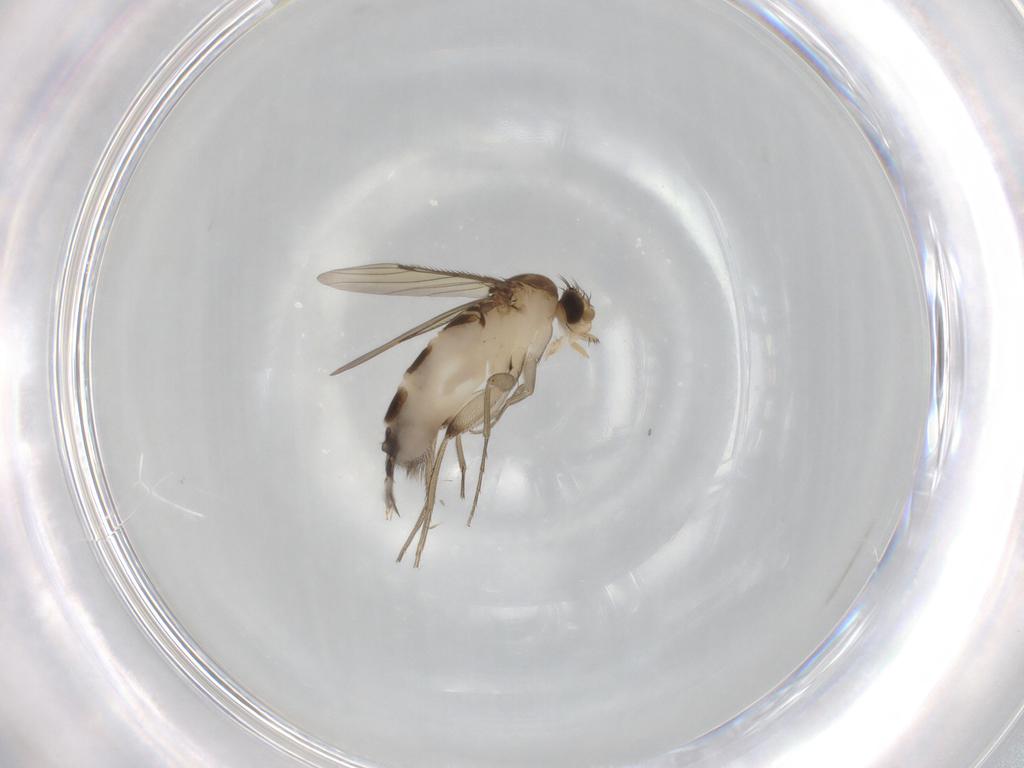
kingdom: Animalia
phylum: Arthropoda
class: Insecta
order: Diptera
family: Phoridae
